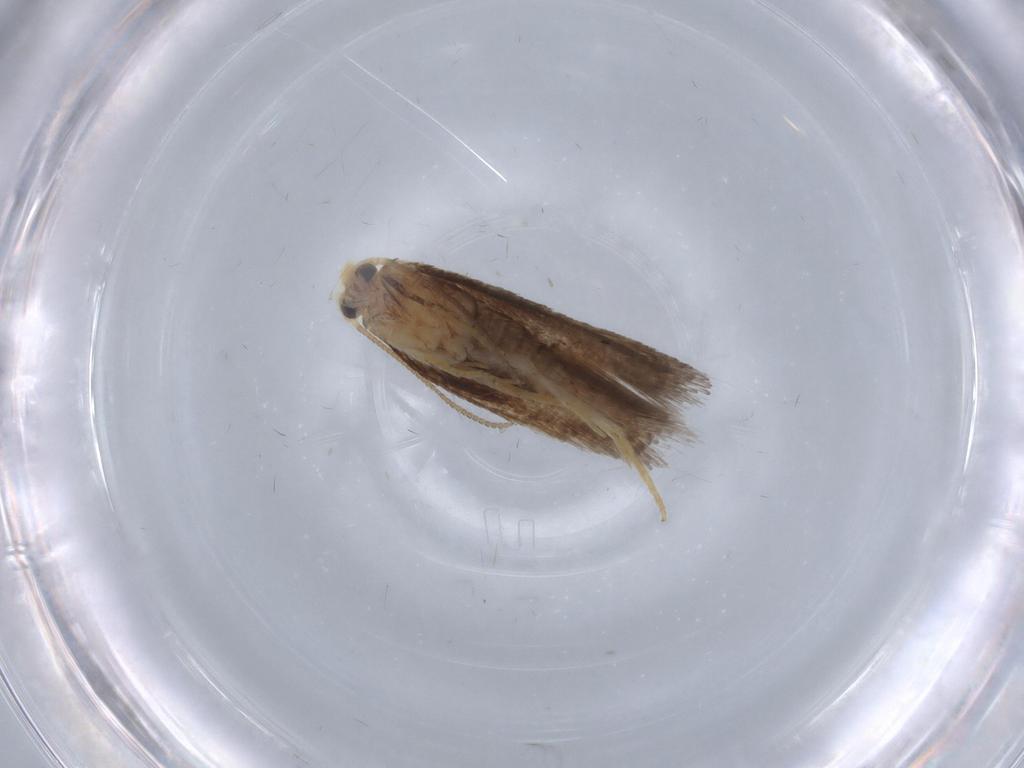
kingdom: Animalia
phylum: Arthropoda
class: Insecta
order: Lepidoptera
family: Nepticulidae
